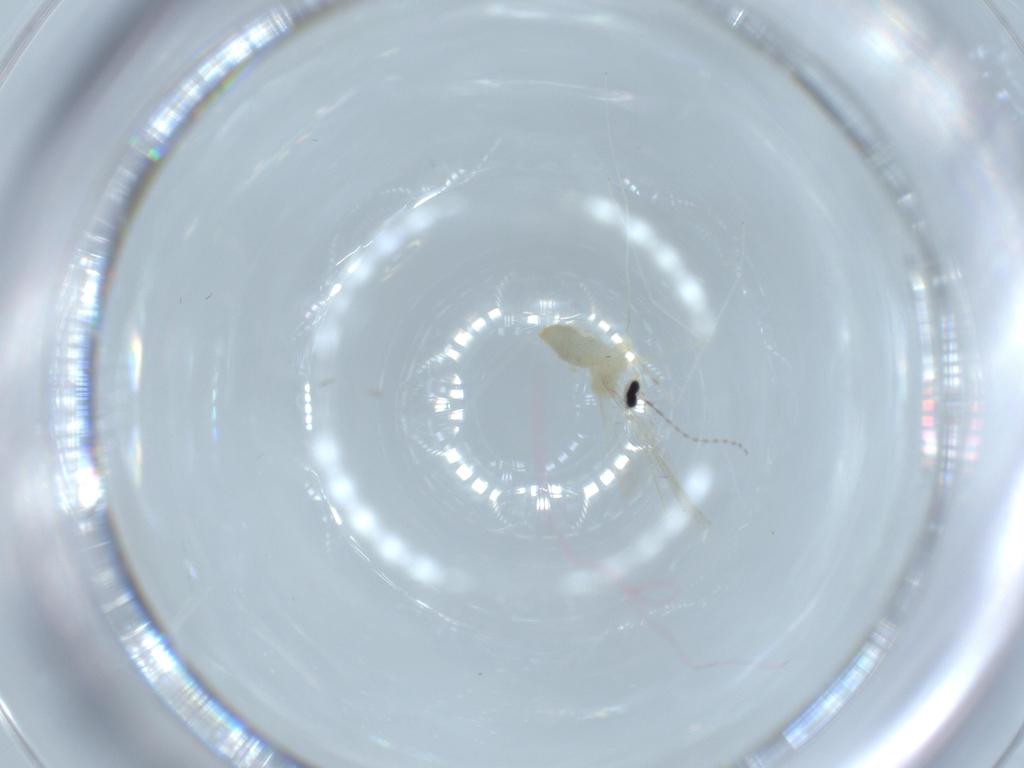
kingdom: Animalia
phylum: Arthropoda
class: Insecta
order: Diptera
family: Cecidomyiidae
